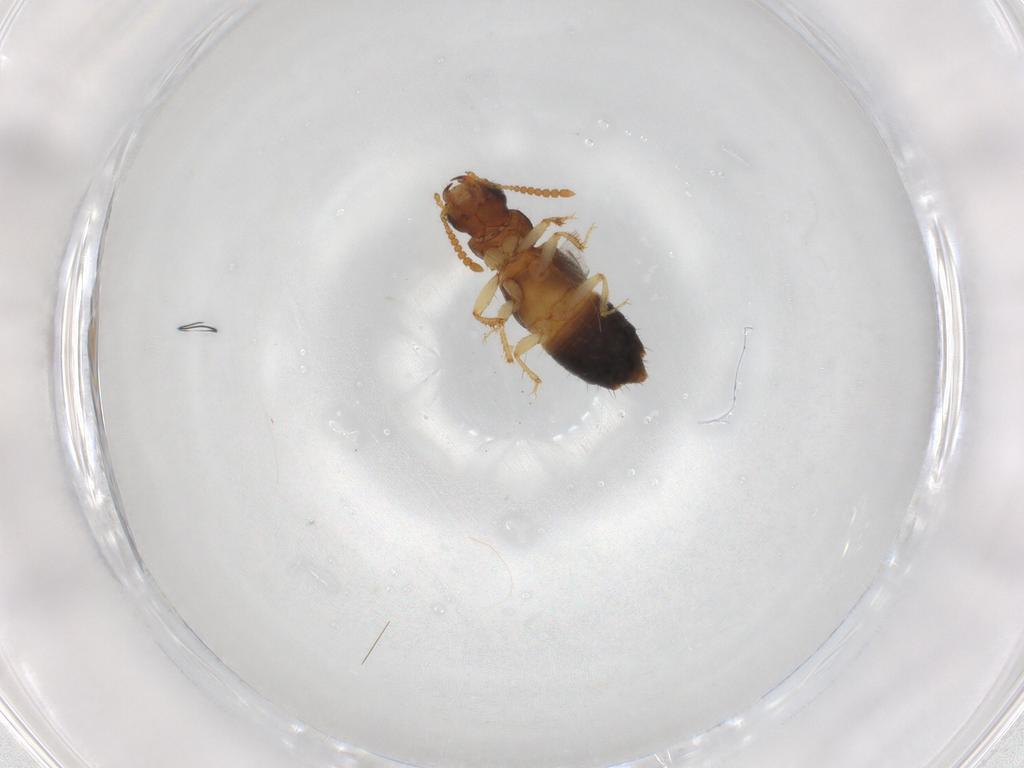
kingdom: Animalia
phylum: Arthropoda
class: Insecta
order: Coleoptera
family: Staphylinidae
